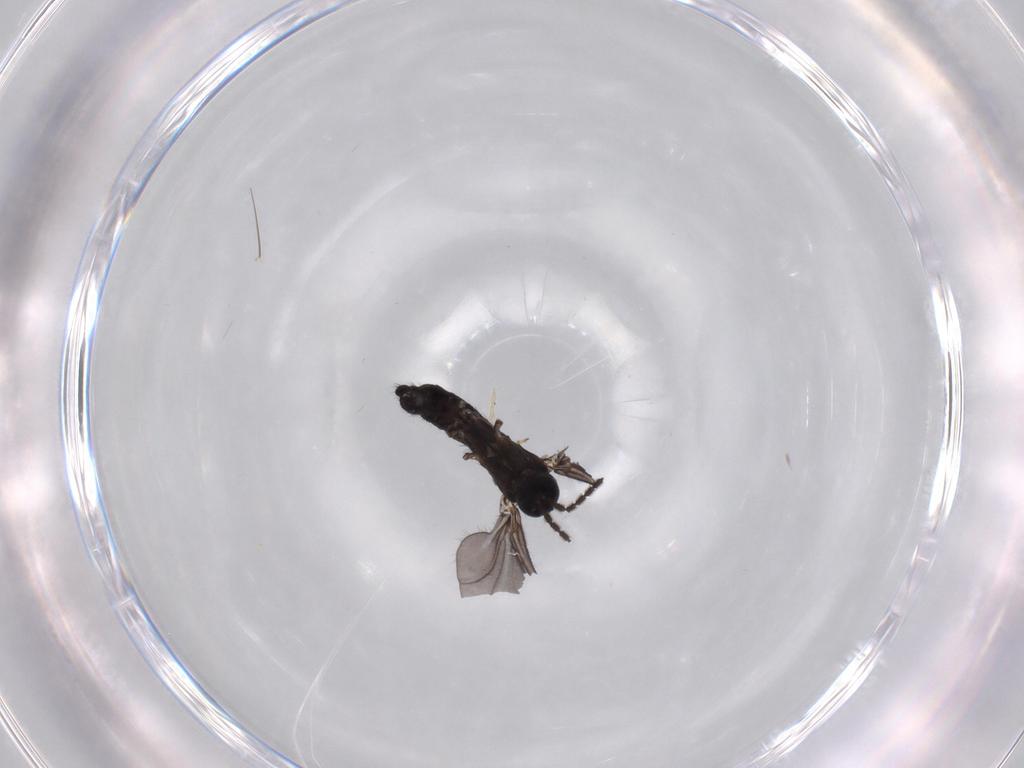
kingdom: Animalia
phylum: Arthropoda
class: Insecta
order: Diptera
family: Sciaridae
